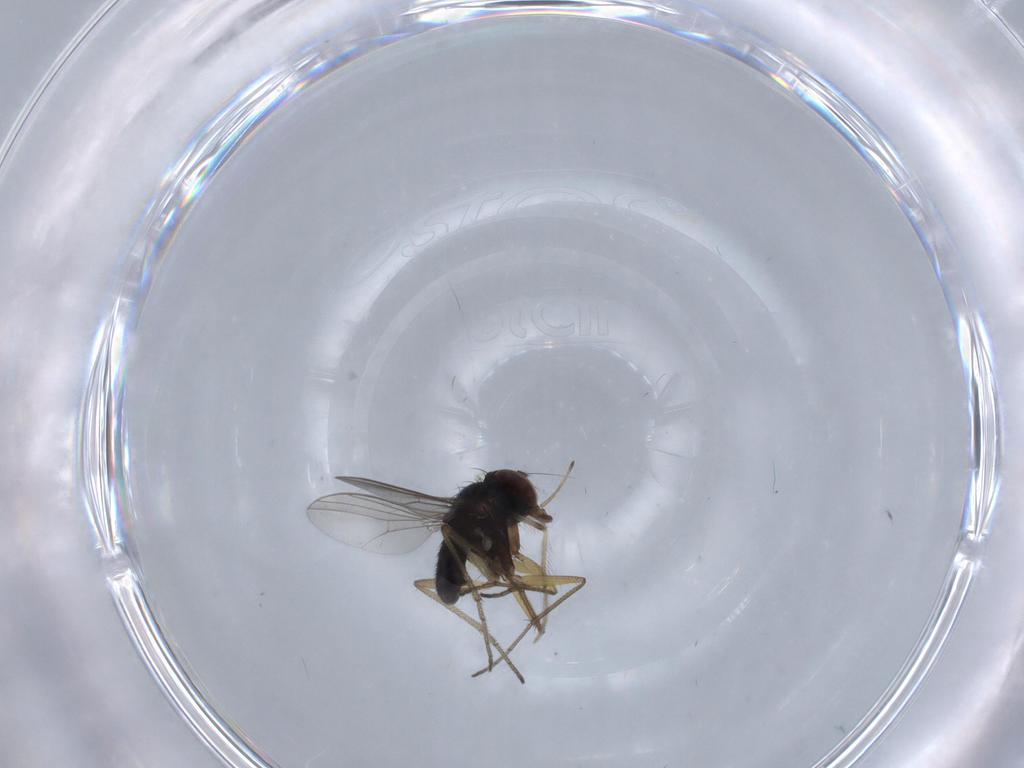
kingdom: Animalia
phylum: Arthropoda
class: Insecta
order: Diptera
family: Dolichopodidae
